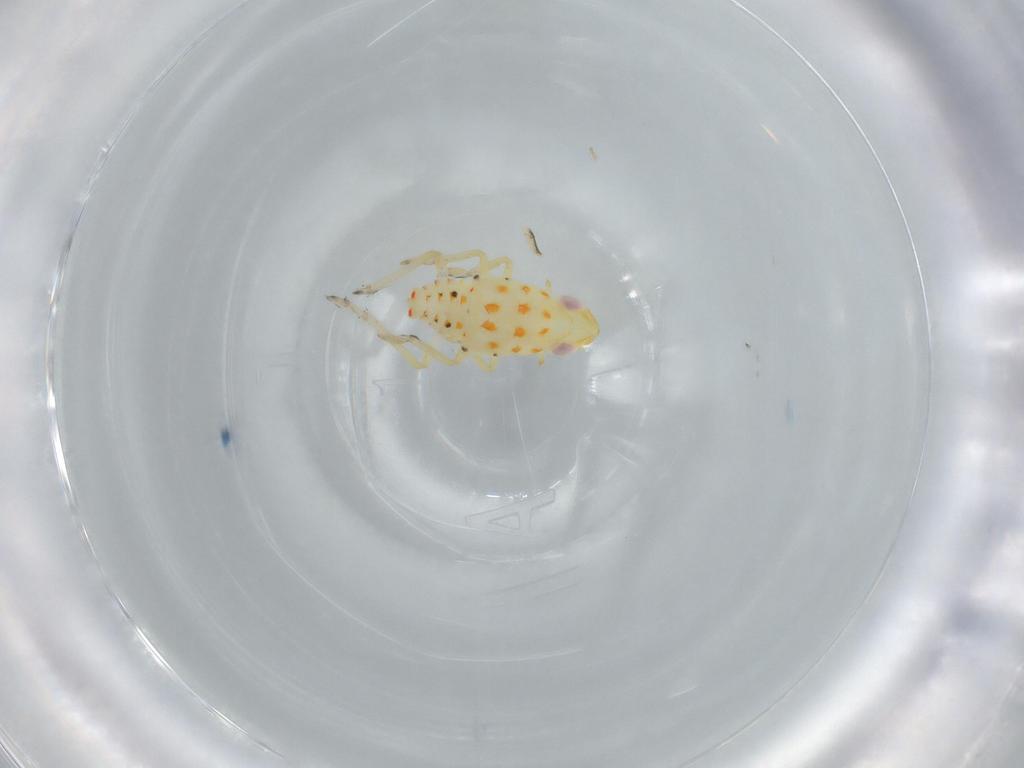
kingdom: Animalia
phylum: Arthropoda
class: Insecta
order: Hemiptera
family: Tropiduchidae
